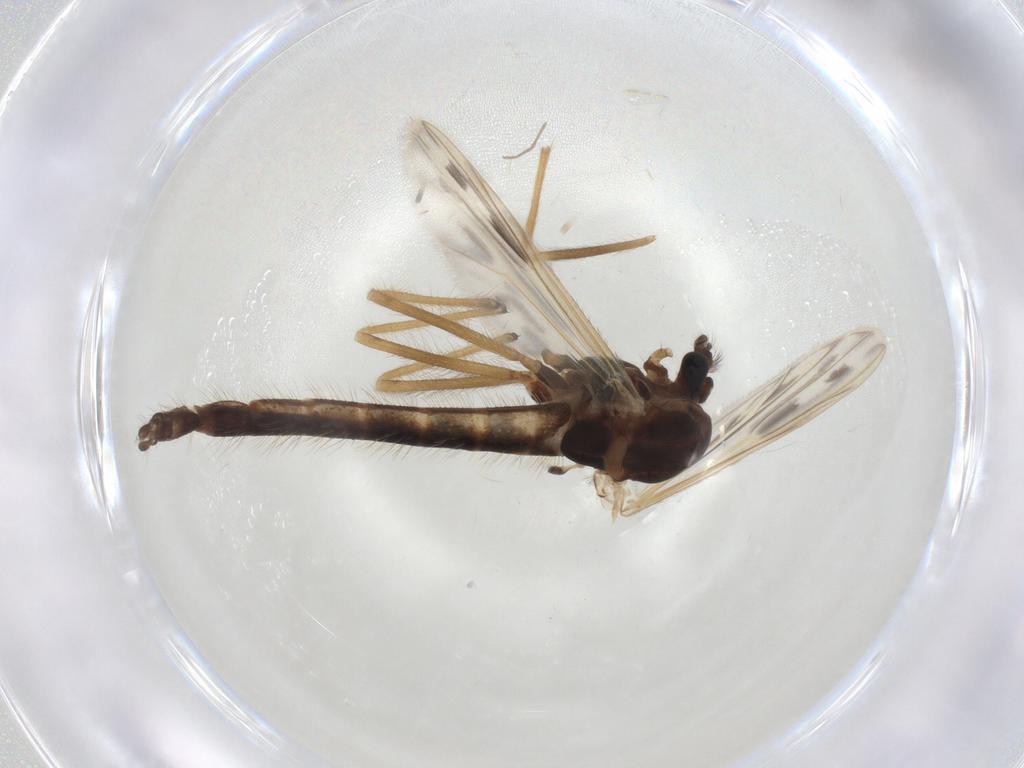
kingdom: Animalia
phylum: Arthropoda
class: Insecta
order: Diptera
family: Chironomidae
